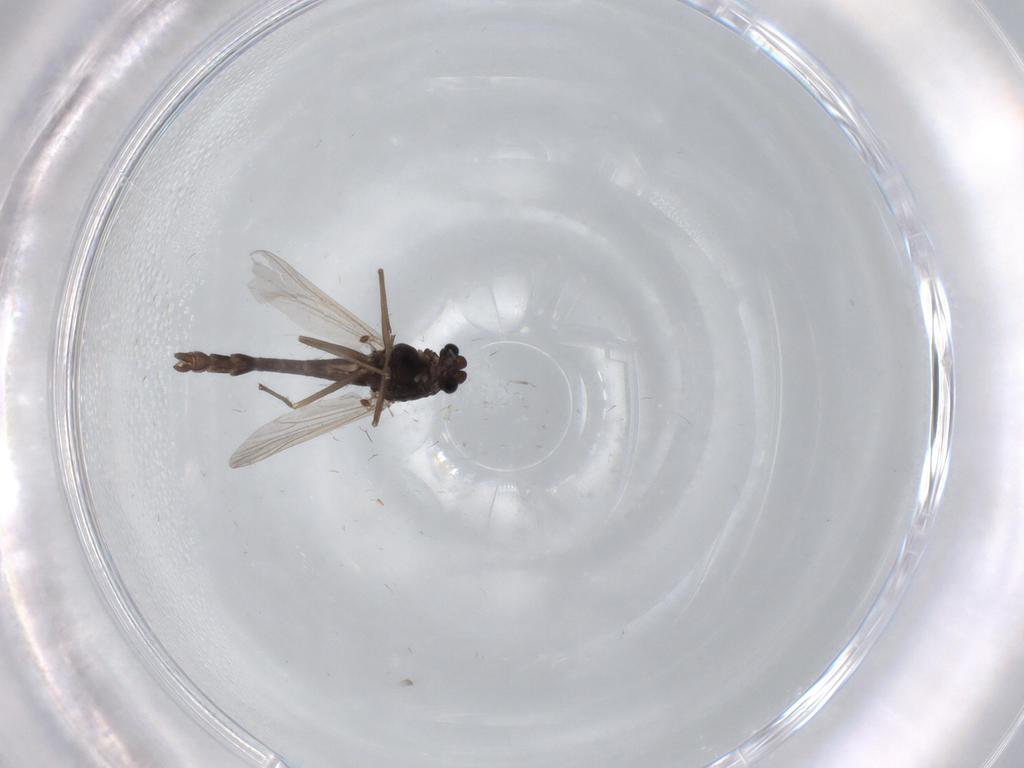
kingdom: Animalia
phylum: Arthropoda
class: Insecta
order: Diptera
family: Chironomidae
